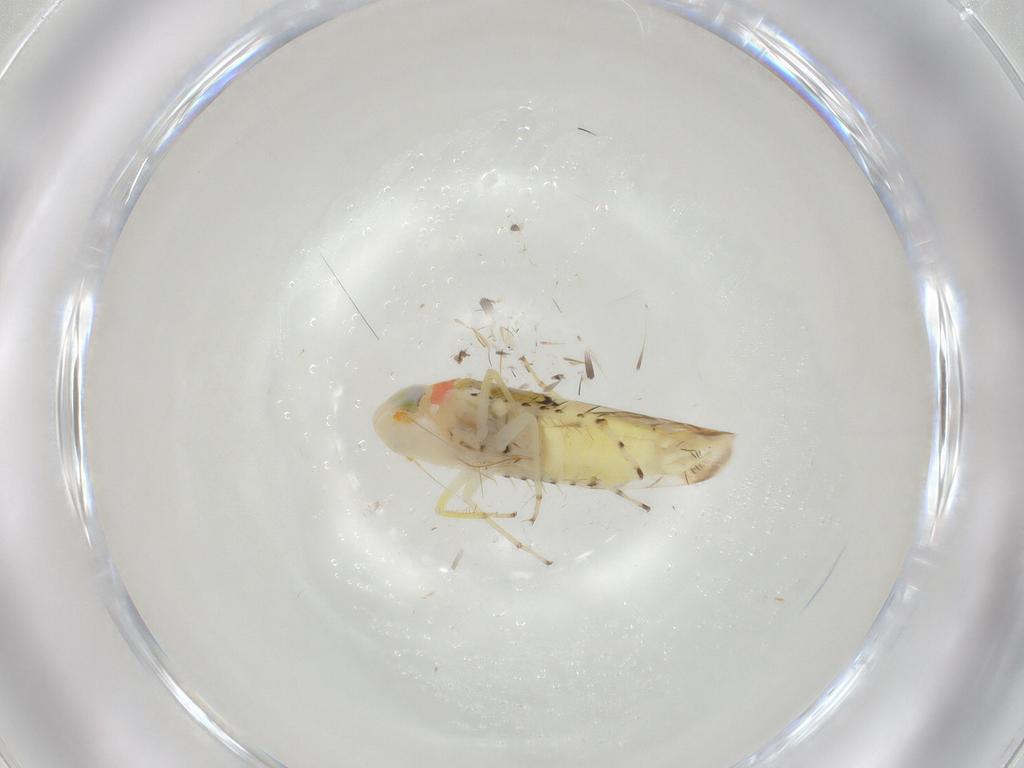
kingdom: Animalia
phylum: Arthropoda
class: Insecta
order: Hemiptera
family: Cicadellidae
